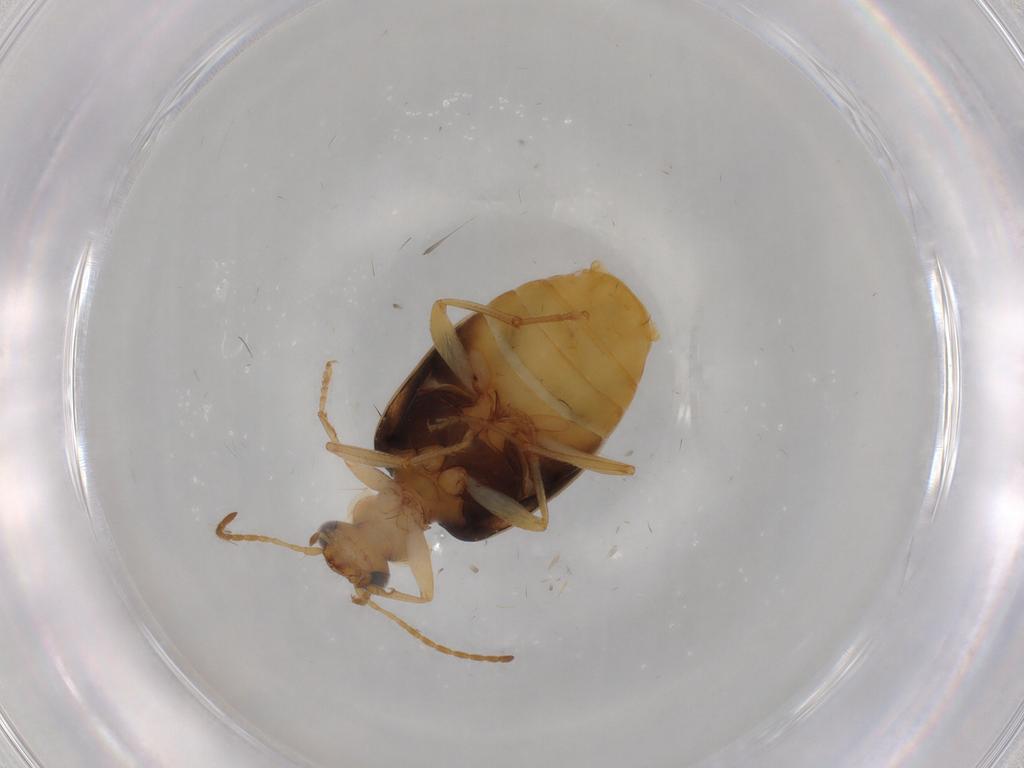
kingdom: Animalia
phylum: Arthropoda
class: Insecta
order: Coleoptera
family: Carabidae
